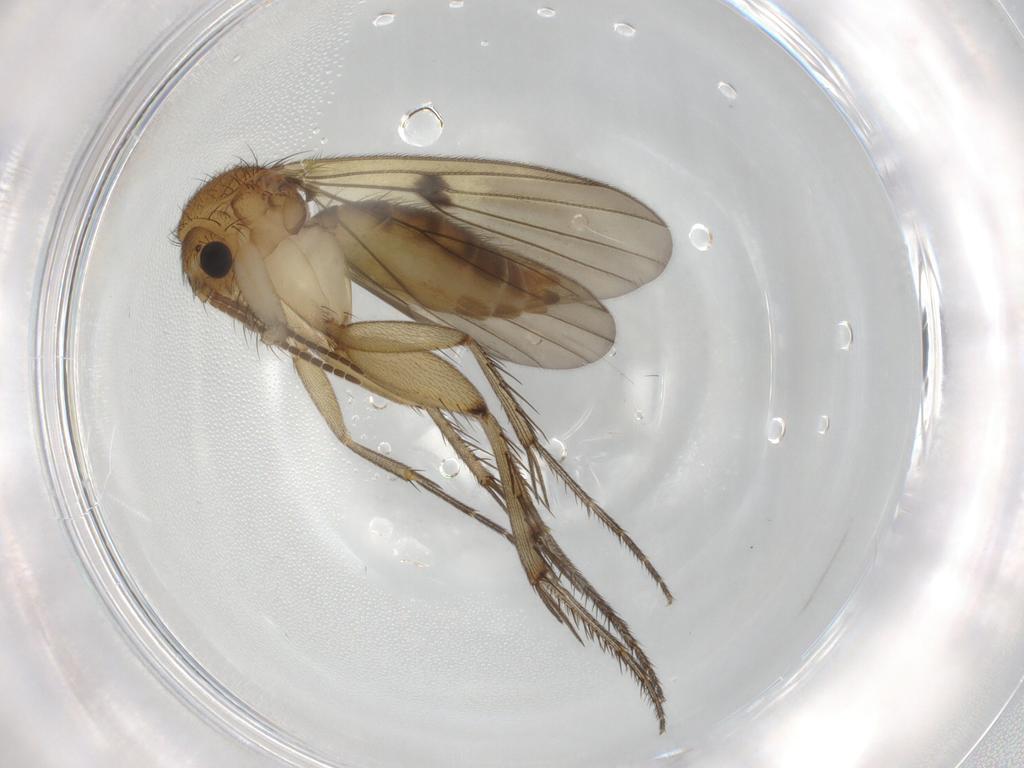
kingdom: Animalia
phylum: Arthropoda
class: Insecta
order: Diptera
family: Mycetophilidae
